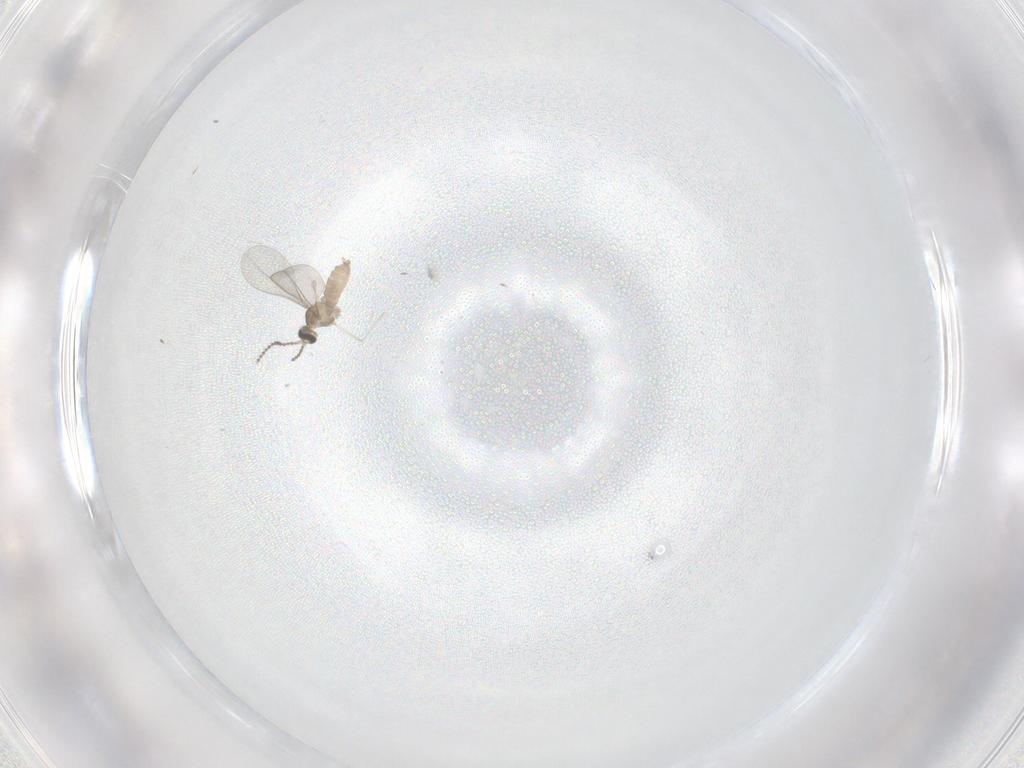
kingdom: Animalia
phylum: Arthropoda
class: Insecta
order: Diptera
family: Cecidomyiidae
